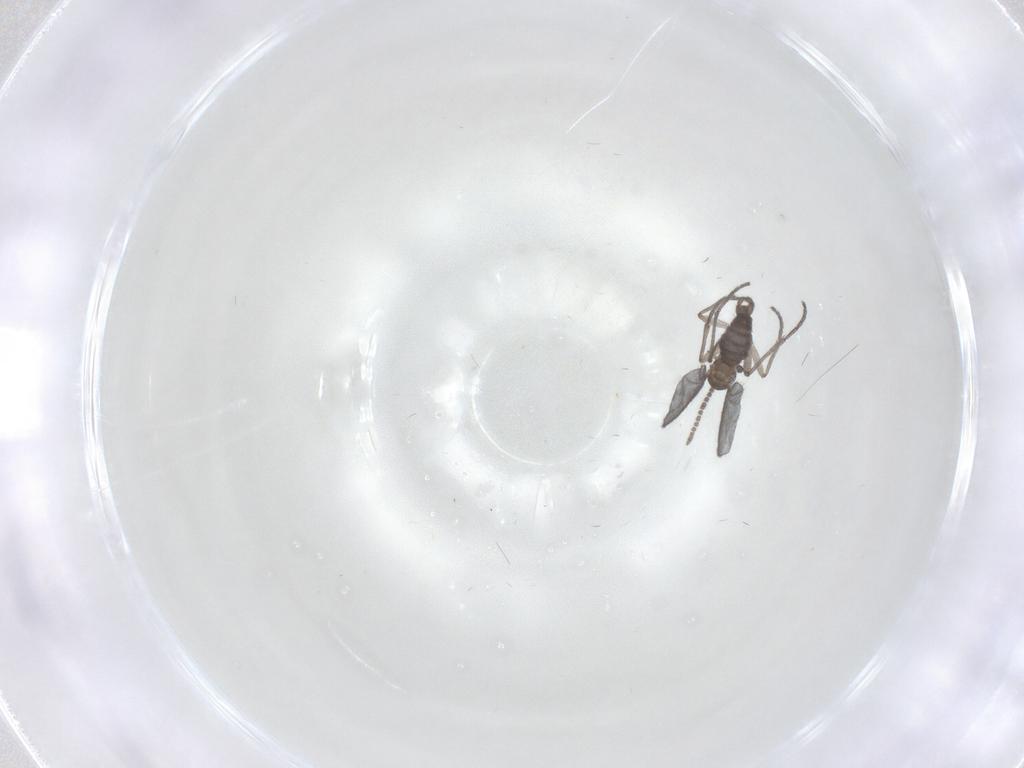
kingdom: Animalia
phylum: Arthropoda
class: Insecta
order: Diptera
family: Sciaridae
